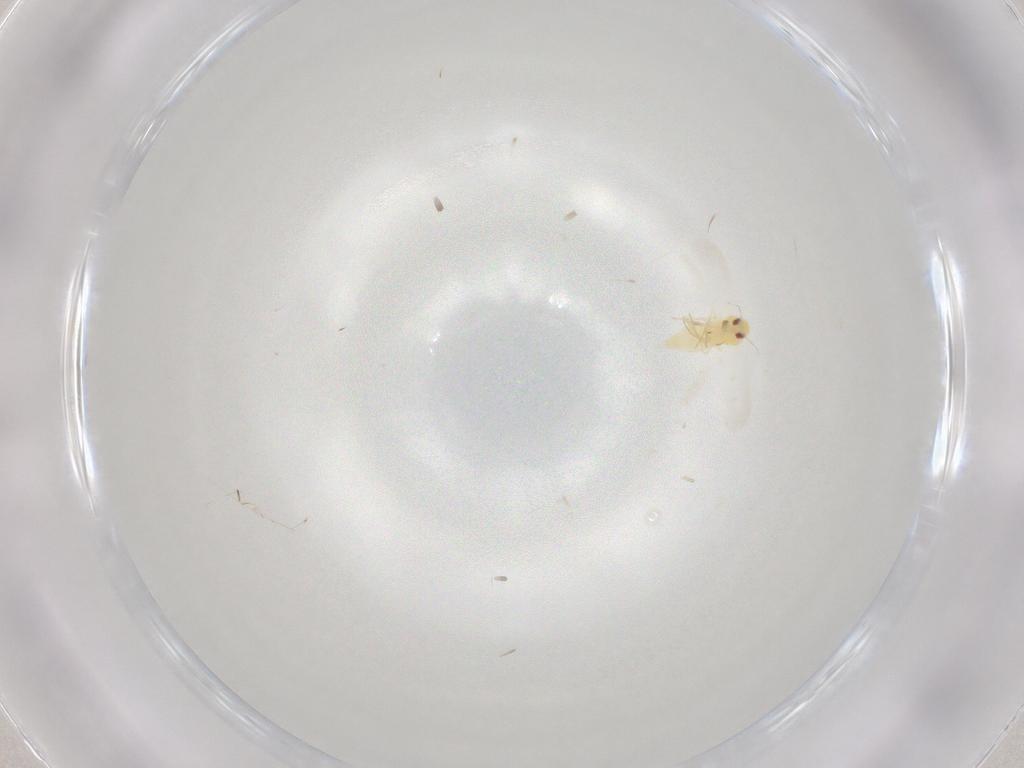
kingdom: Animalia
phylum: Arthropoda
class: Insecta
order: Hemiptera
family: Aleyrodidae
